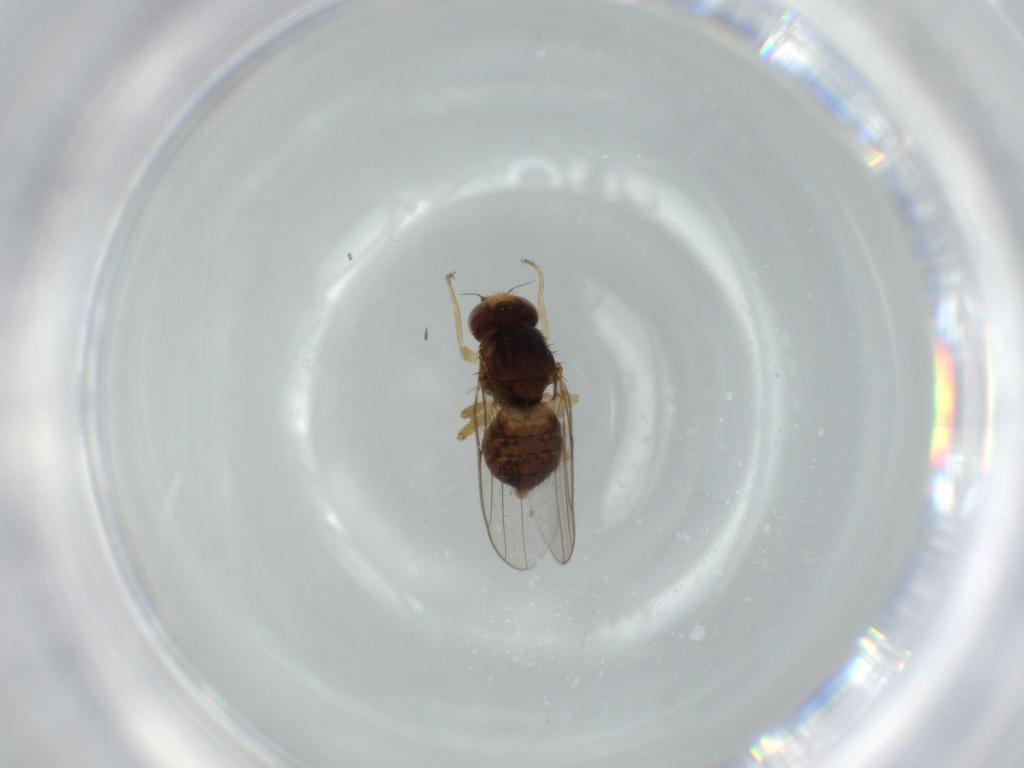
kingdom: Animalia
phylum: Arthropoda
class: Insecta
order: Diptera
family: Chloropidae
